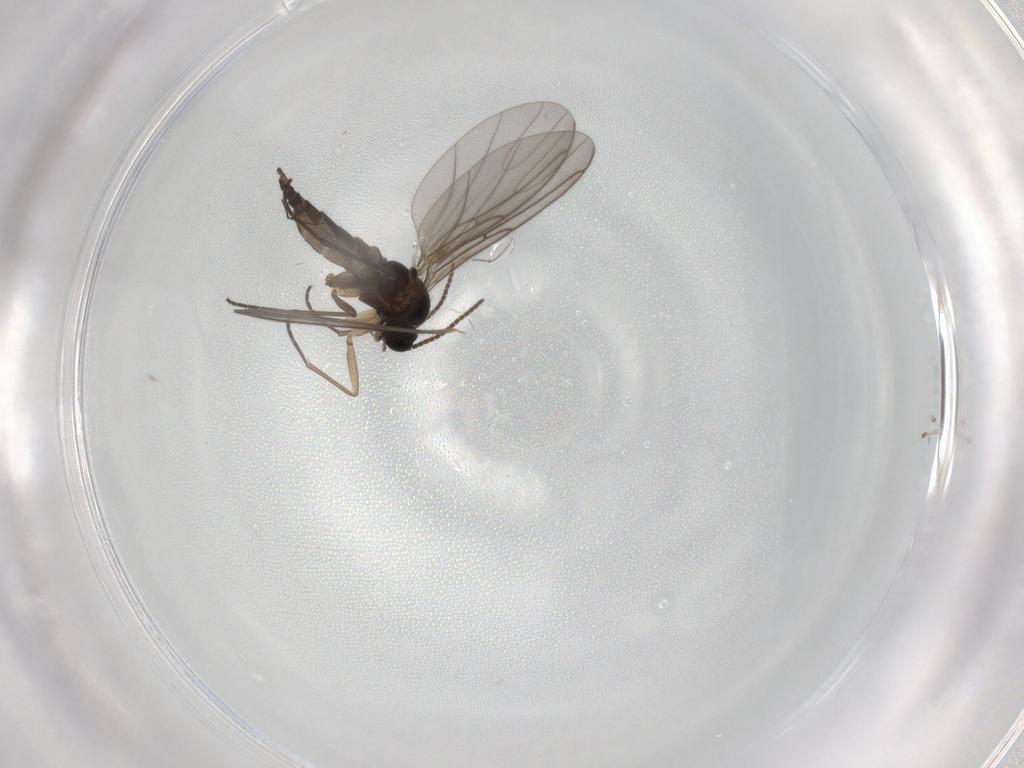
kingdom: Animalia
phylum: Arthropoda
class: Insecta
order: Diptera
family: Sciaridae
